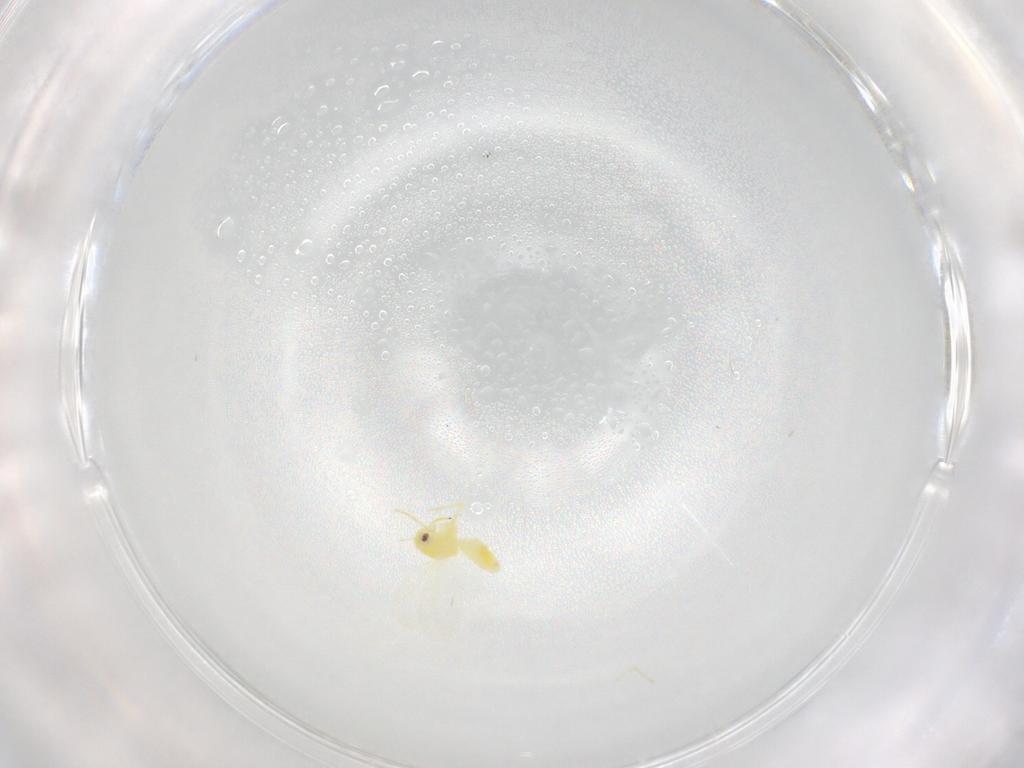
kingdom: Animalia
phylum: Arthropoda
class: Insecta
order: Hemiptera
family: Aleyrodidae
